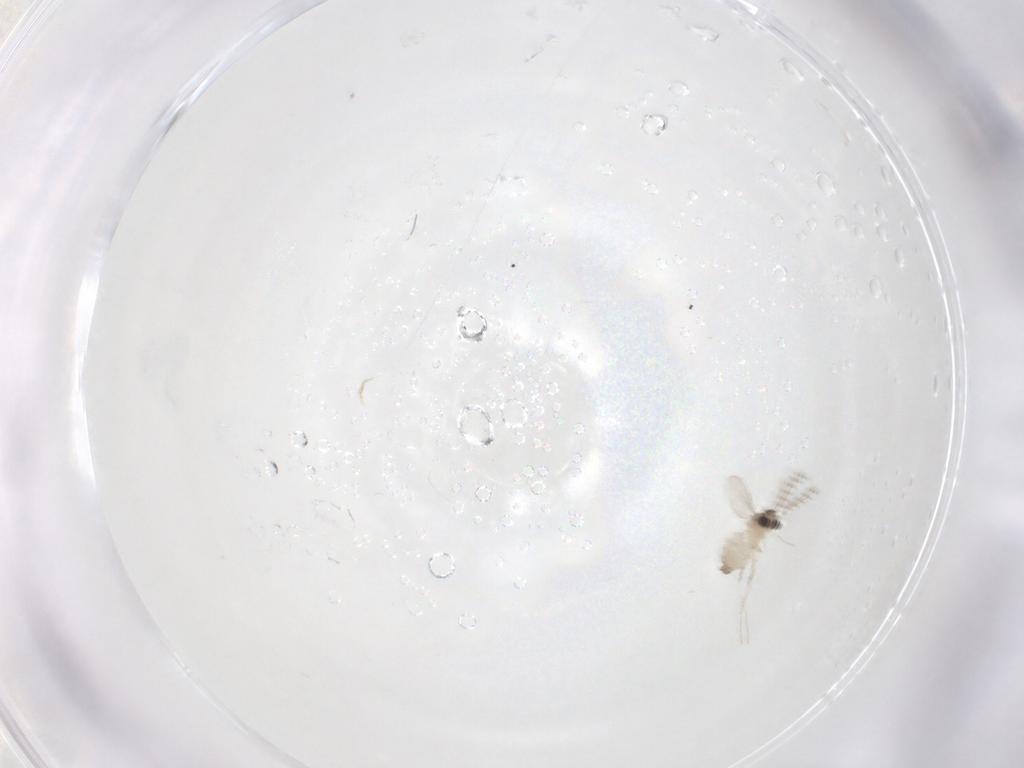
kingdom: Animalia
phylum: Arthropoda
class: Insecta
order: Diptera
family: Cecidomyiidae
